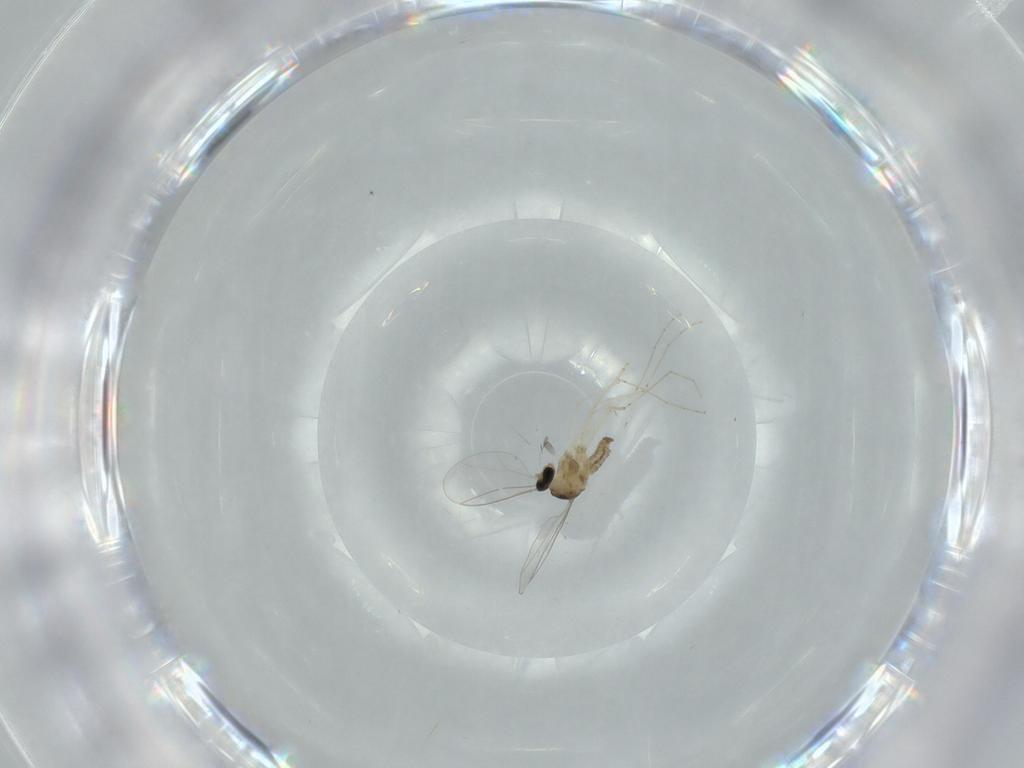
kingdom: Animalia
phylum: Arthropoda
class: Insecta
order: Diptera
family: Cecidomyiidae
